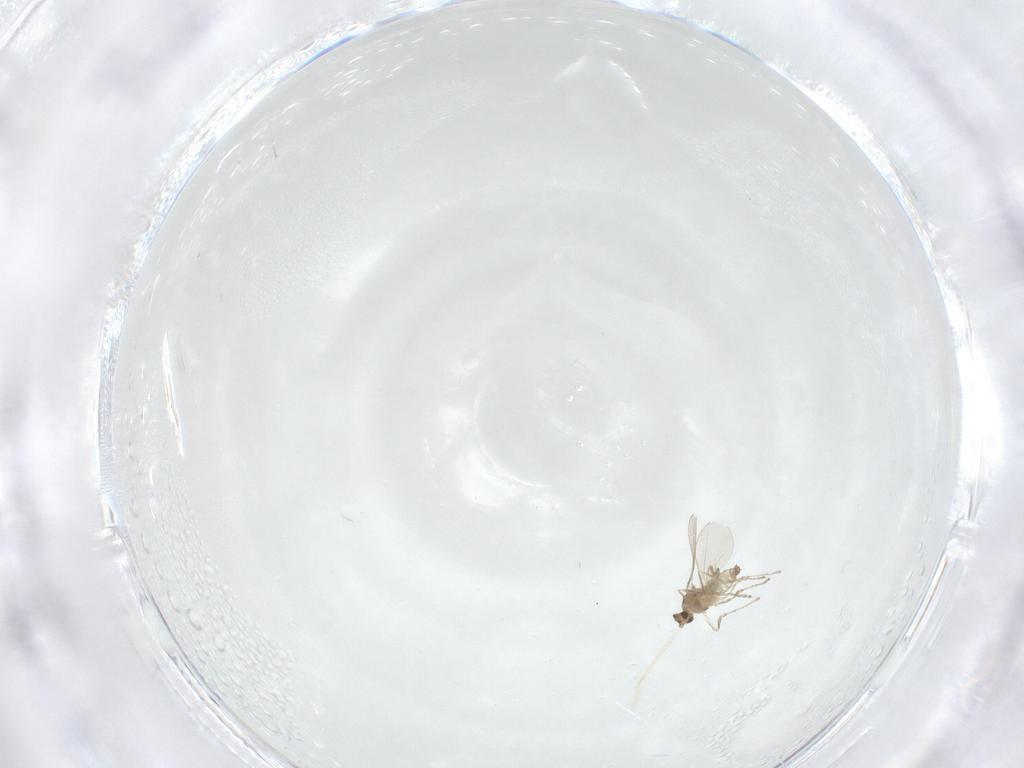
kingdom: Animalia
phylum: Arthropoda
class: Insecta
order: Diptera
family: Cecidomyiidae
